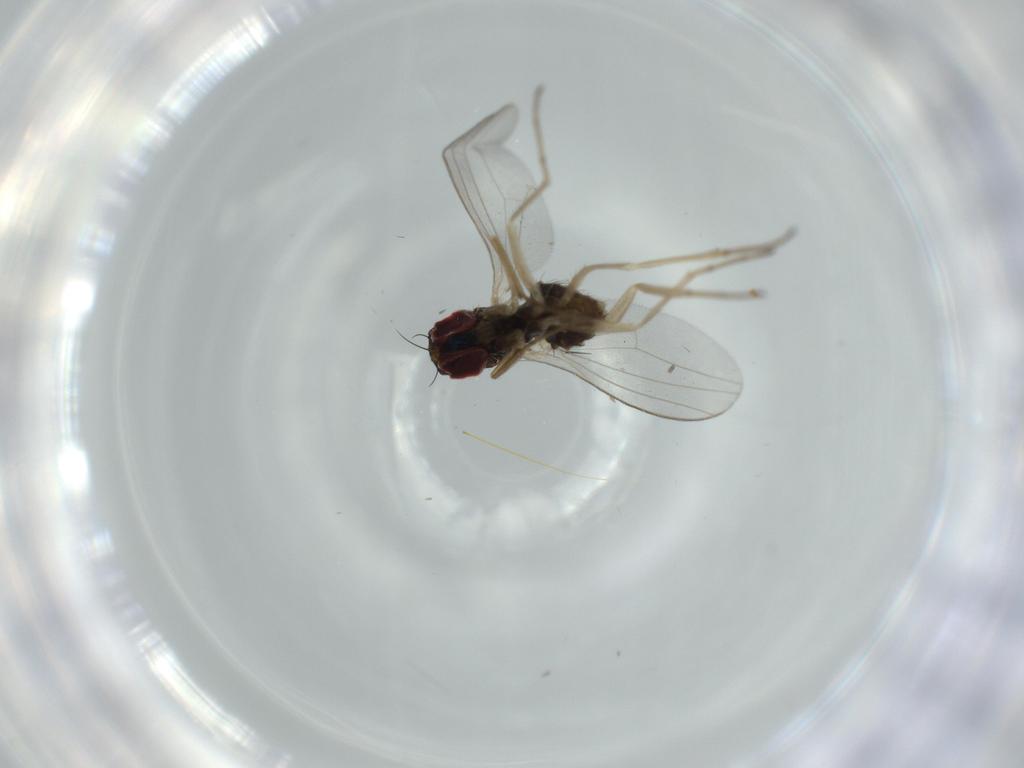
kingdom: Animalia
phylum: Arthropoda
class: Insecta
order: Diptera
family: Dolichopodidae
